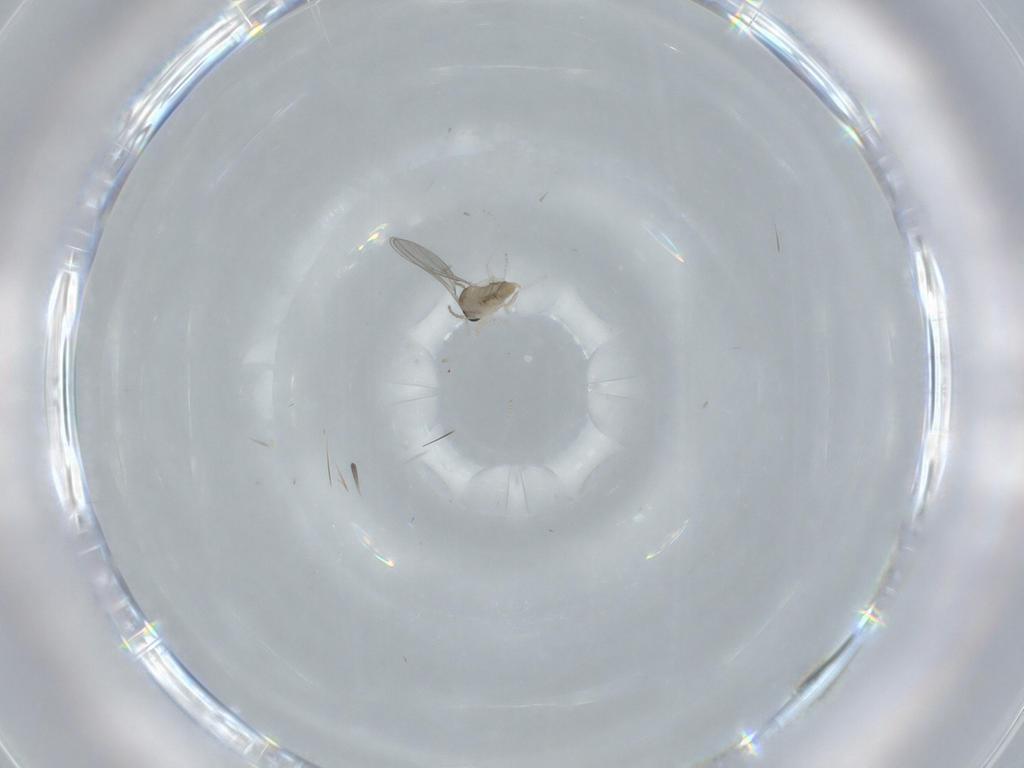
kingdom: Animalia
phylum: Arthropoda
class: Insecta
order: Diptera
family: Cecidomyiidae
